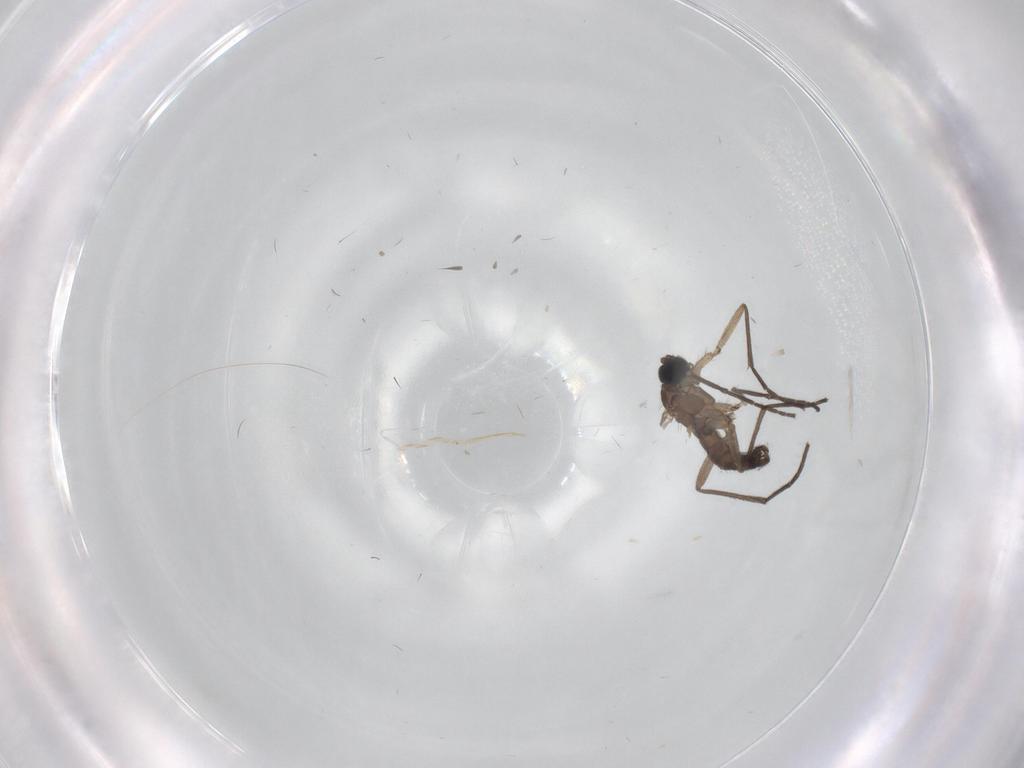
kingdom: Animalia
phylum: Arthropoda
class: Insecta
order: Diptera
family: Sciaridae
